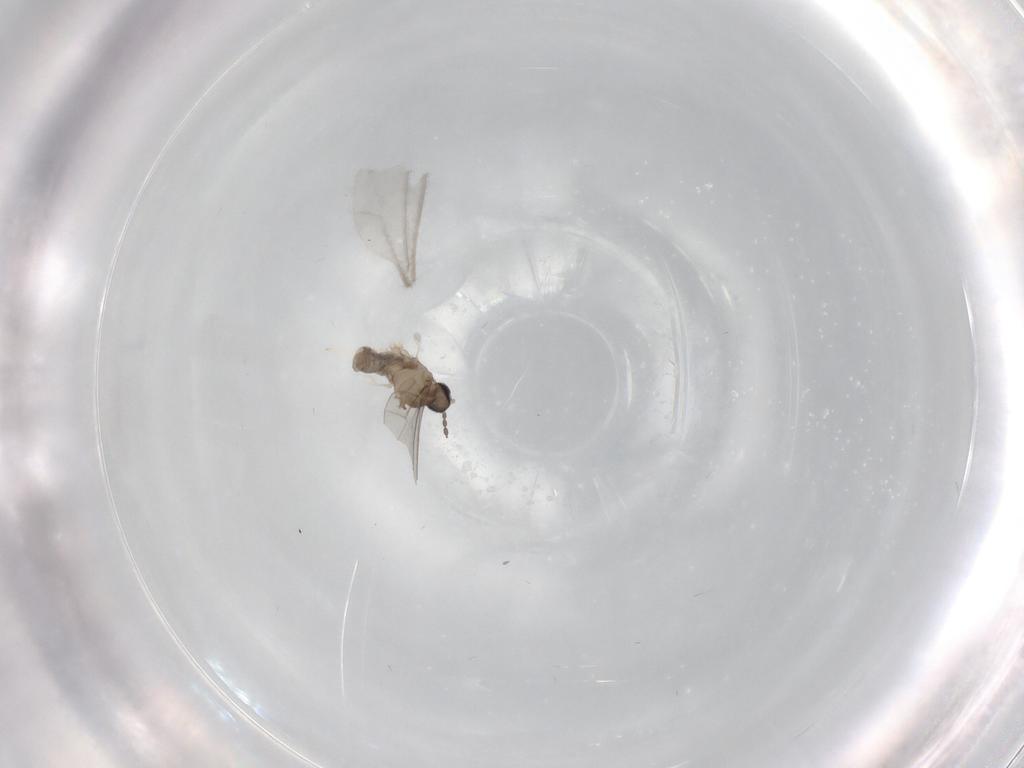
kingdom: Animalia
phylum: Arthropoda
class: Insecta
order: Diptera
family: Cecidomyiidae
